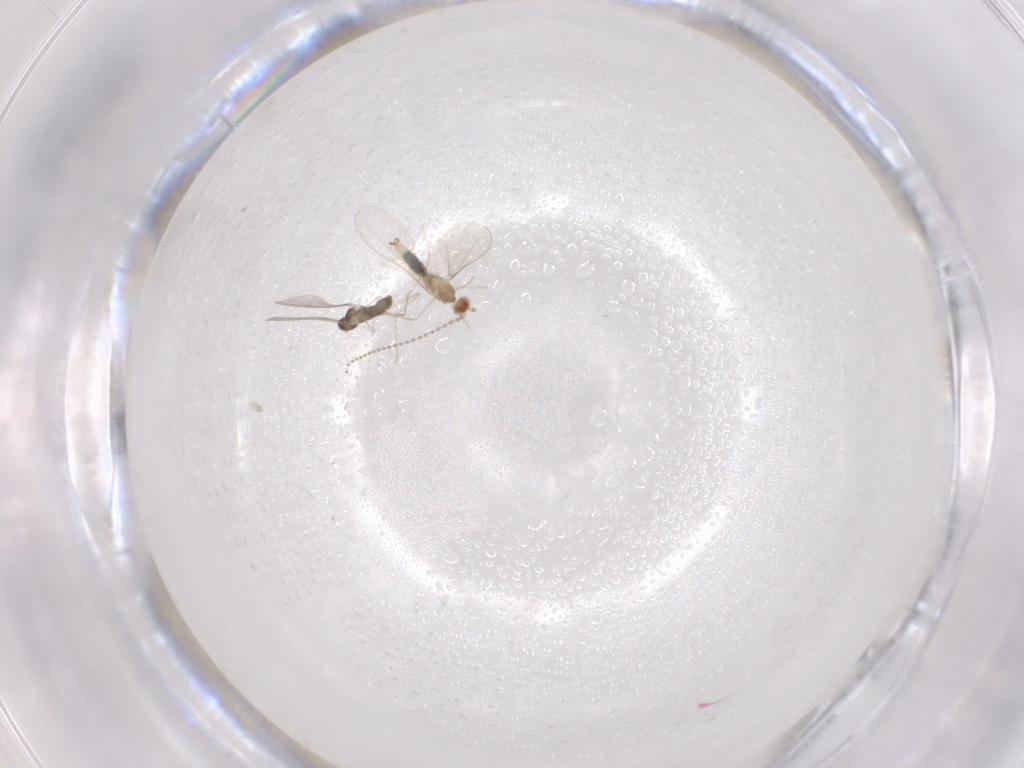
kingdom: Animalia
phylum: Arthropoda
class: Insecta
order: Diptera
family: Cecidomyiidae
